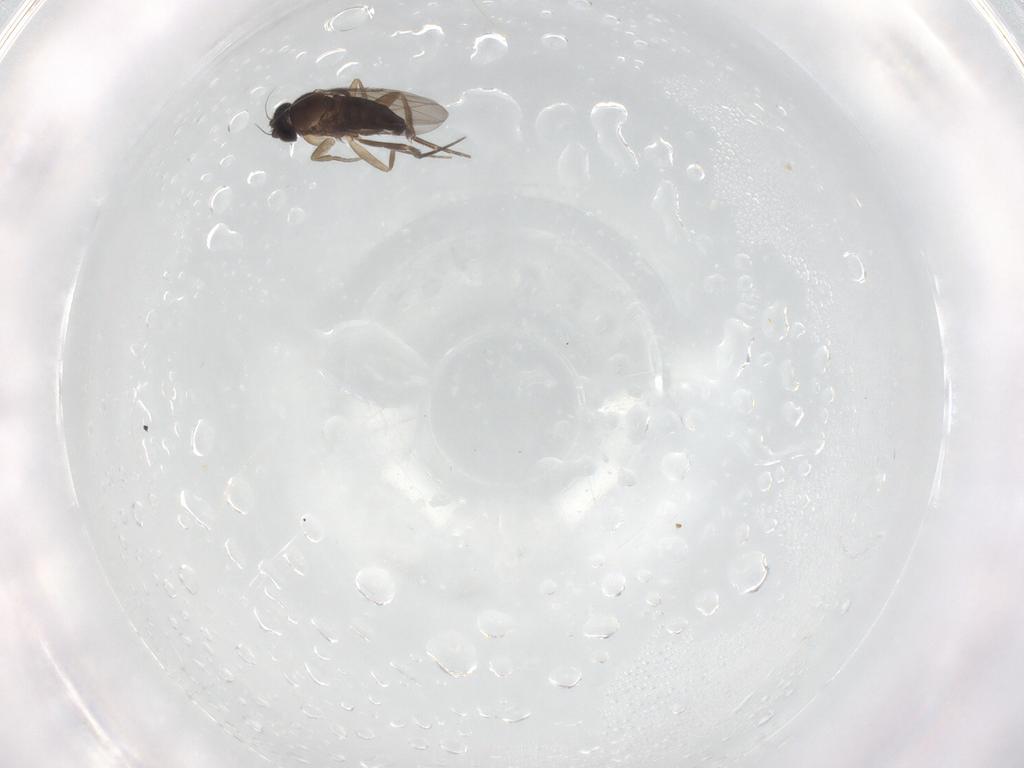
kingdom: Animalia
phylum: Arthropoda
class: Insecta
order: Diptera
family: Phoridae
